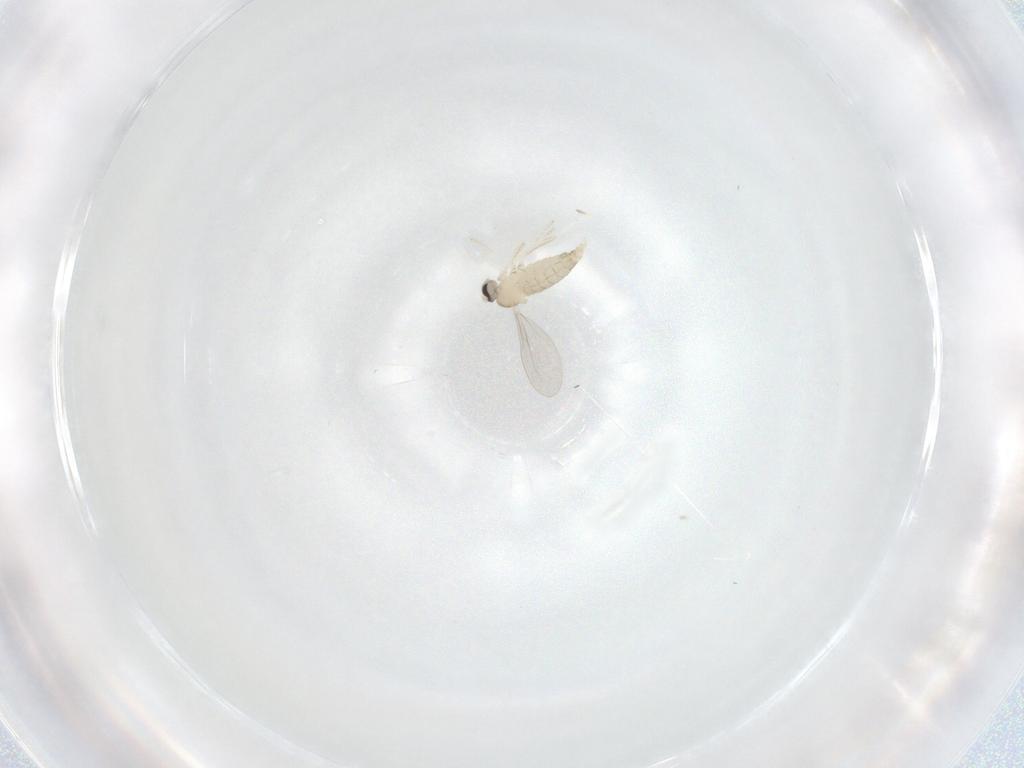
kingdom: Animalia
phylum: Arthropoda
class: Insecta
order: Diptera
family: Cecidomyiidae
